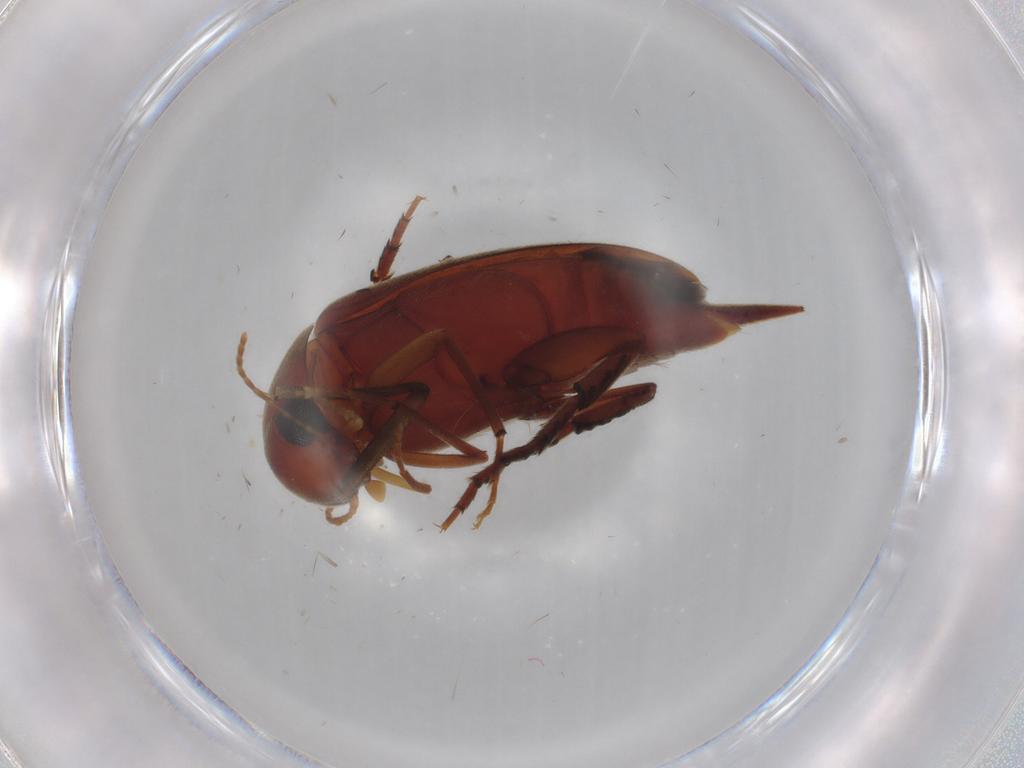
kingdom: Animalia
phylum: Arthropoda
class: Insecta
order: Coleoptera
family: Mordellidae
